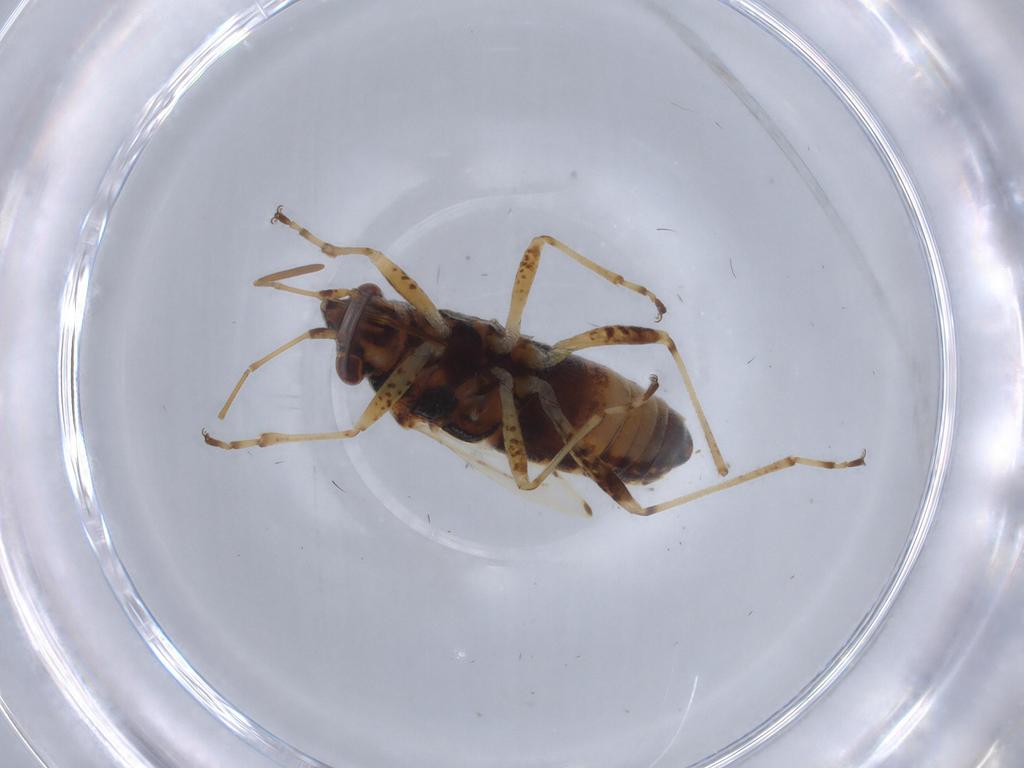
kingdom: Animalia
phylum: Arthropoda
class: Insecta
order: Hemiptera
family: Lygaeidae
